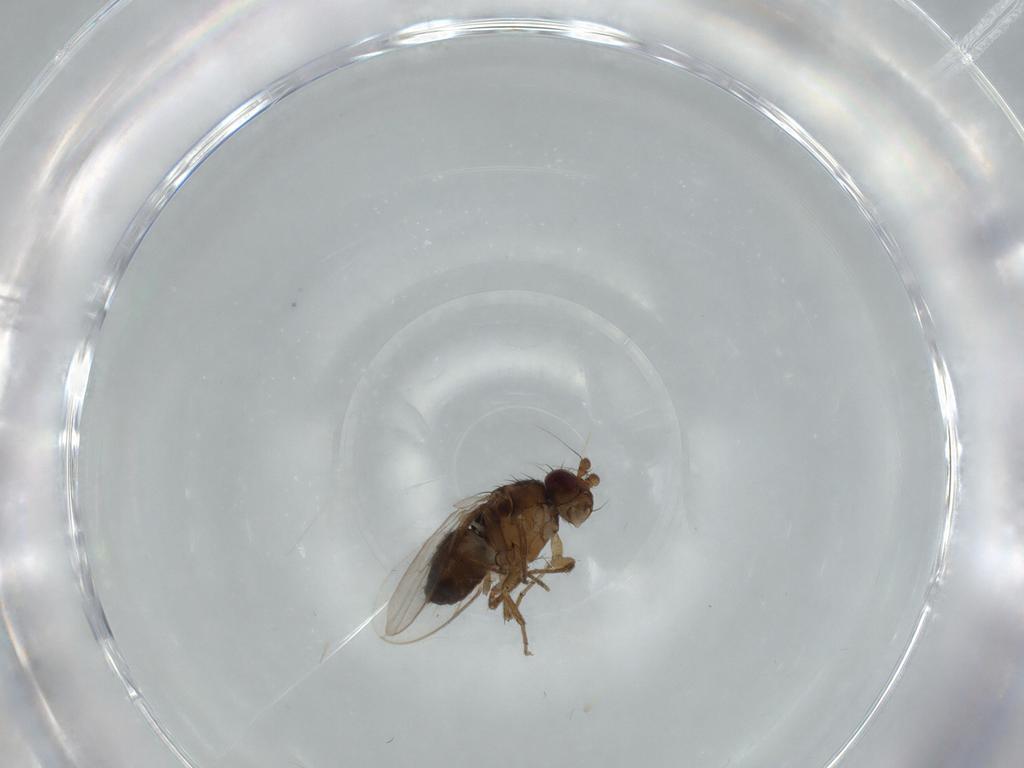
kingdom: Animalia
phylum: Arthropoda
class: Insecta
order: Diptera
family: Sphaeroceridae
